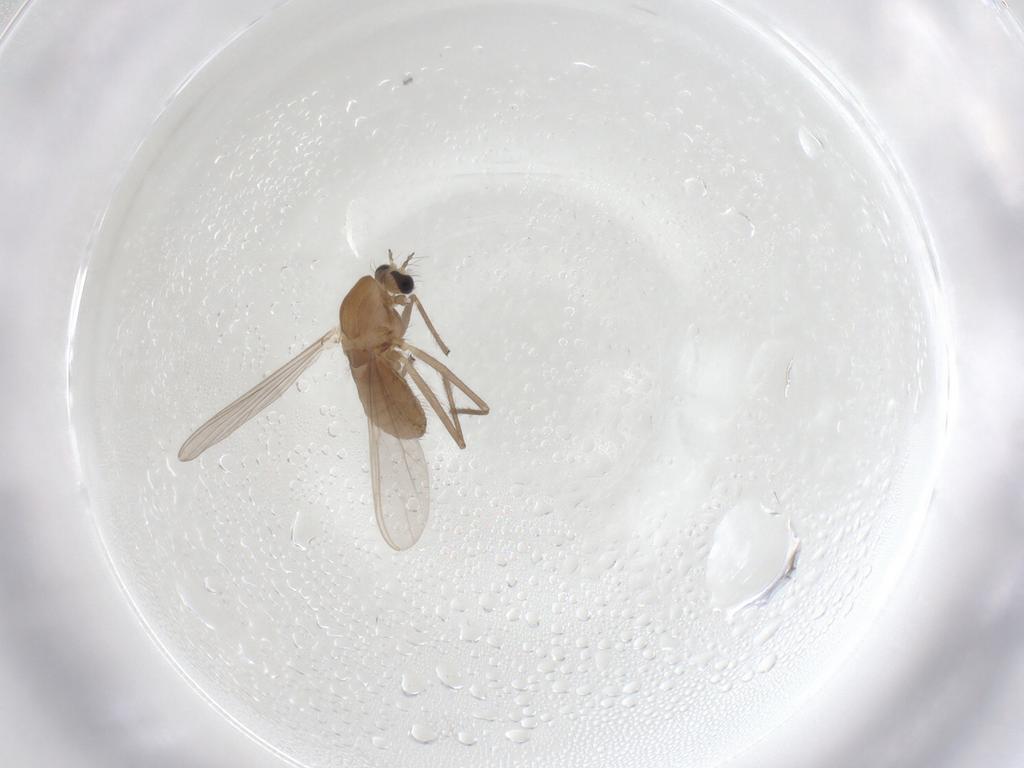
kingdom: Animalia
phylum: Arthropoda
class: Insecta
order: Diptera
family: Chironomidae
